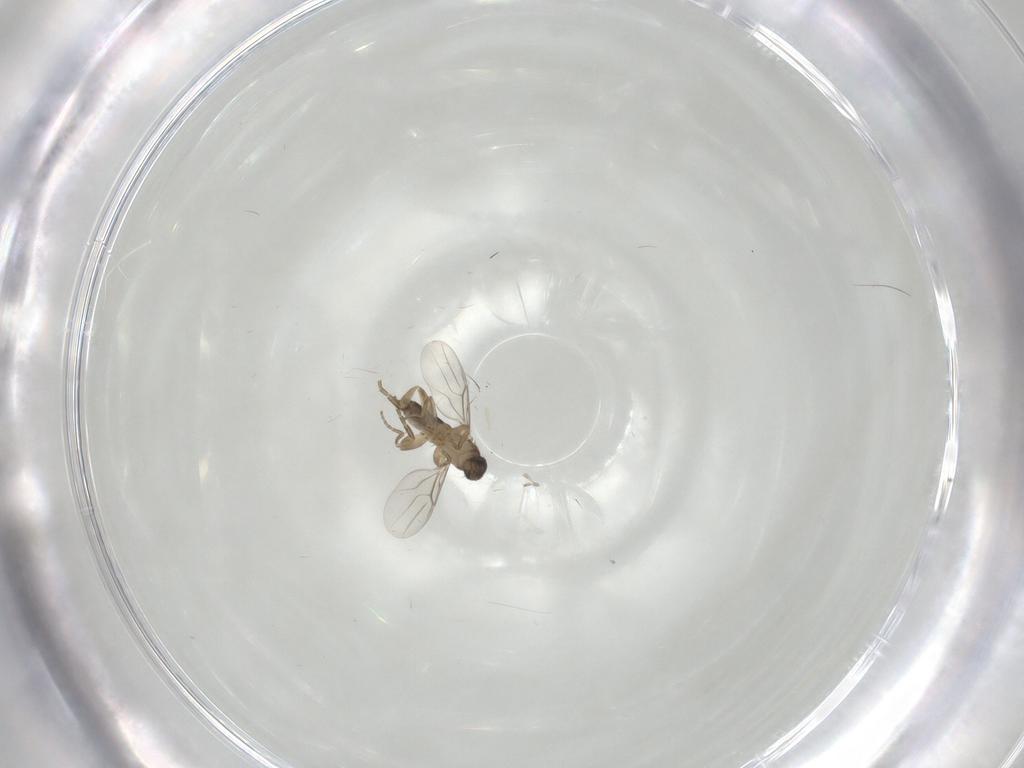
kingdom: Animalia
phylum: Arthropoda
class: Insecta
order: Diptera
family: Phoridae
